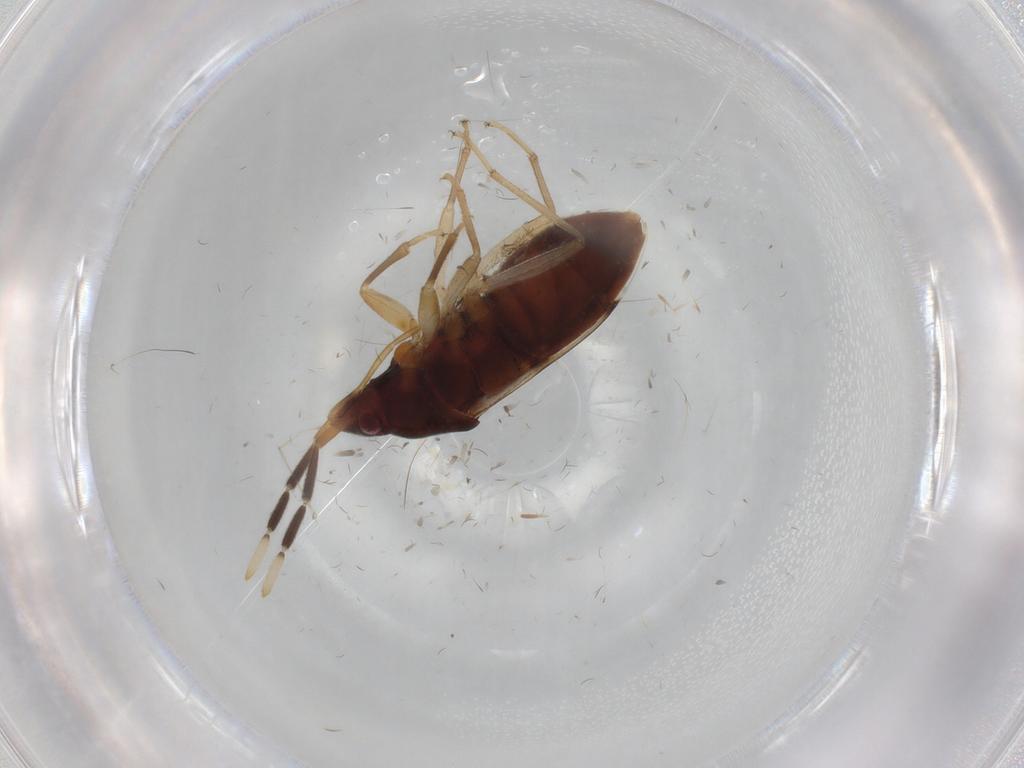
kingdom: Animalia
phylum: Arthropoda
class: Insecta
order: Hemiptera
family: Rhyparochromidae
